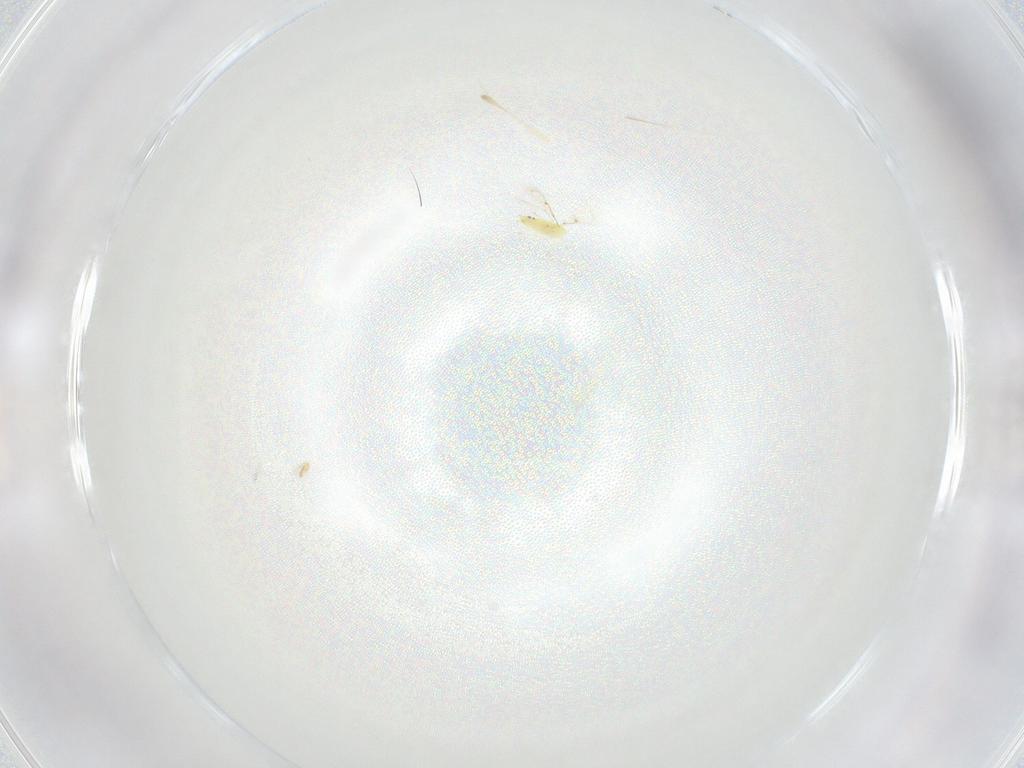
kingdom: Animalia
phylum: Arthropoda
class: Insecta
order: Hymenoptera
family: Trichogrammatidae
